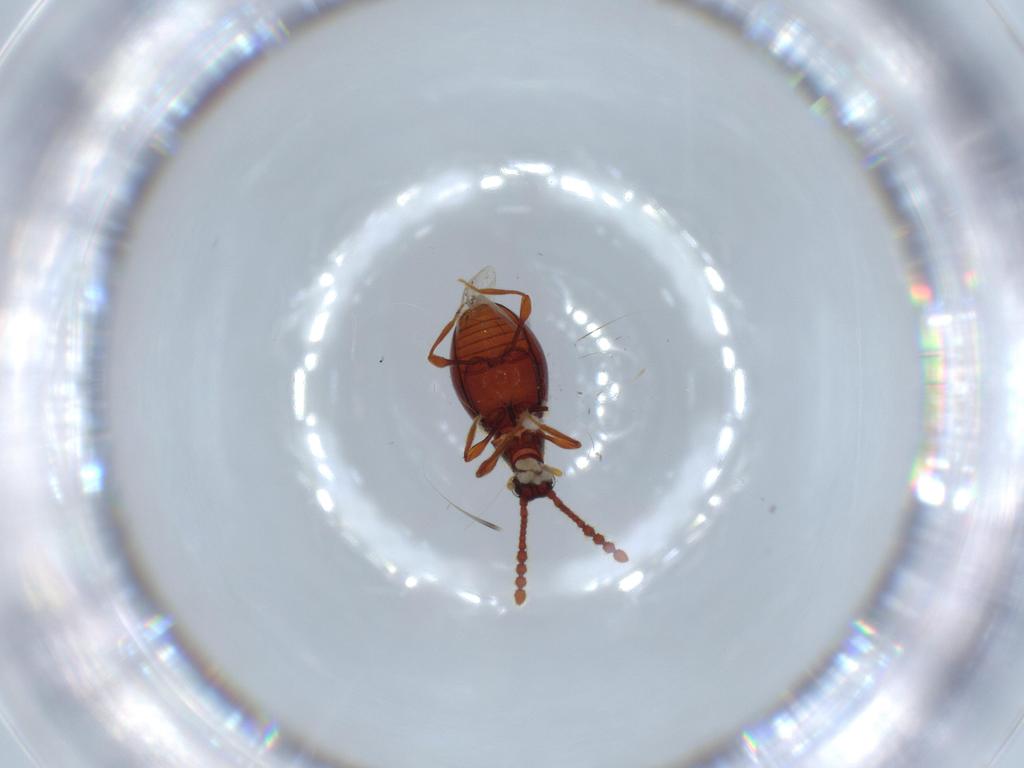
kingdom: Animalia
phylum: Arthropoda
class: Insecta
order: Coleoptera
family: Staphylinidae
